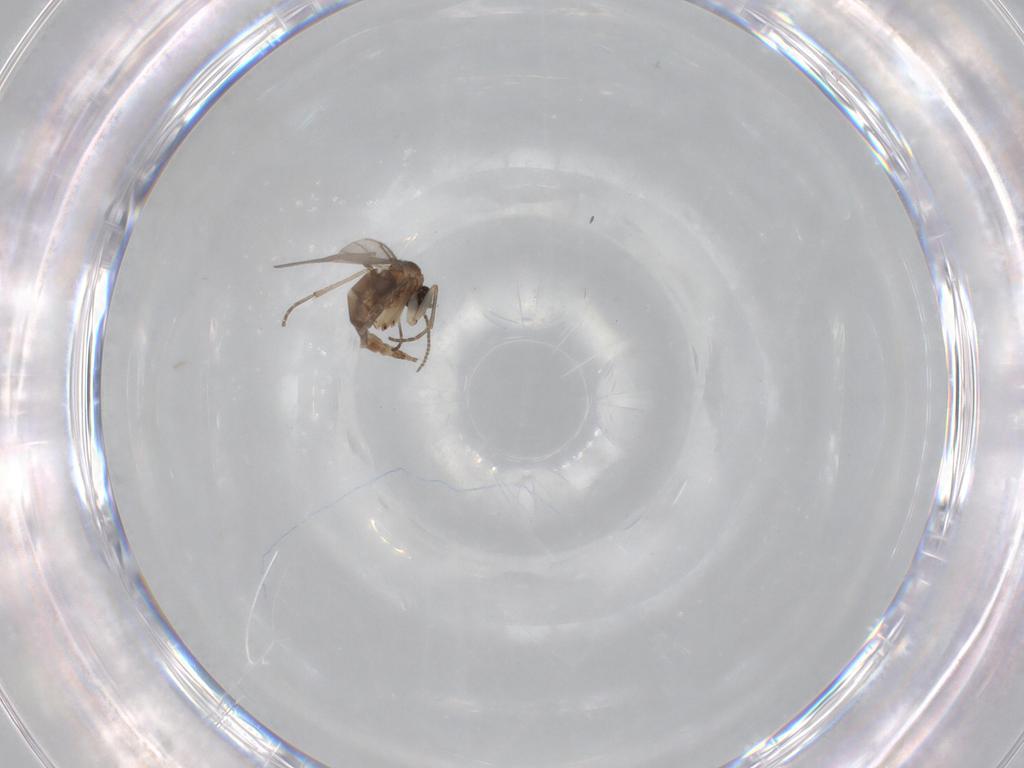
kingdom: Animalia
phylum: Arthropoda
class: Insecta
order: Diptera
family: Sciaridae
